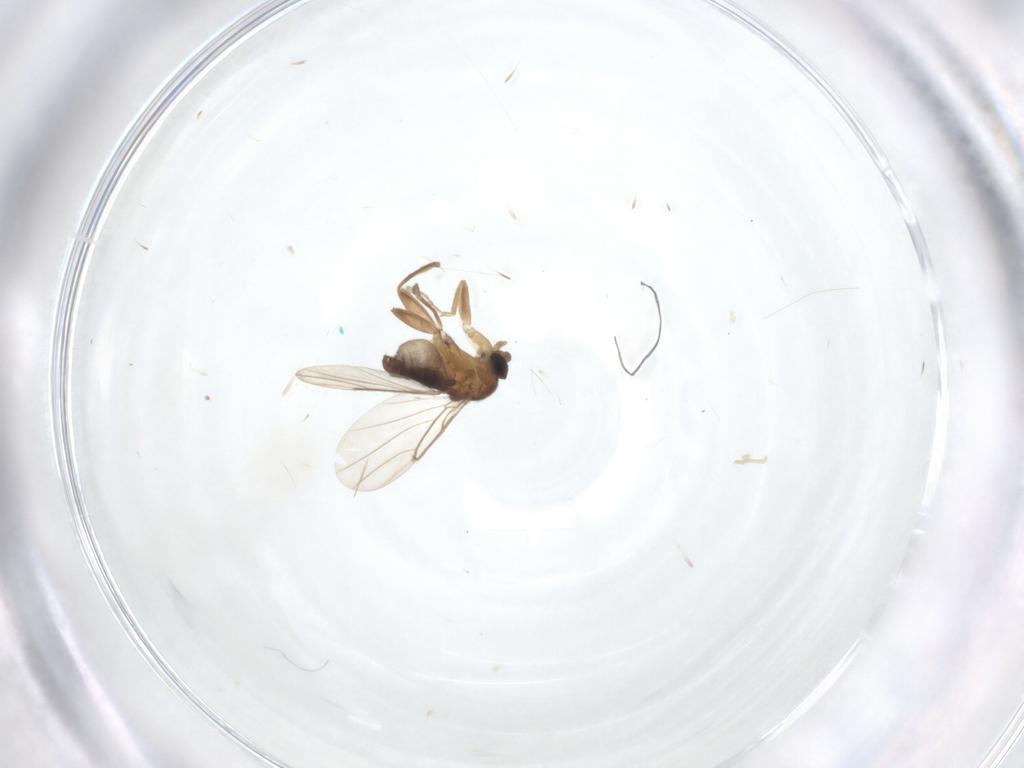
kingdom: Animalia
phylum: Arthropoda
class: Insecta
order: Diptera
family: Phoridae
